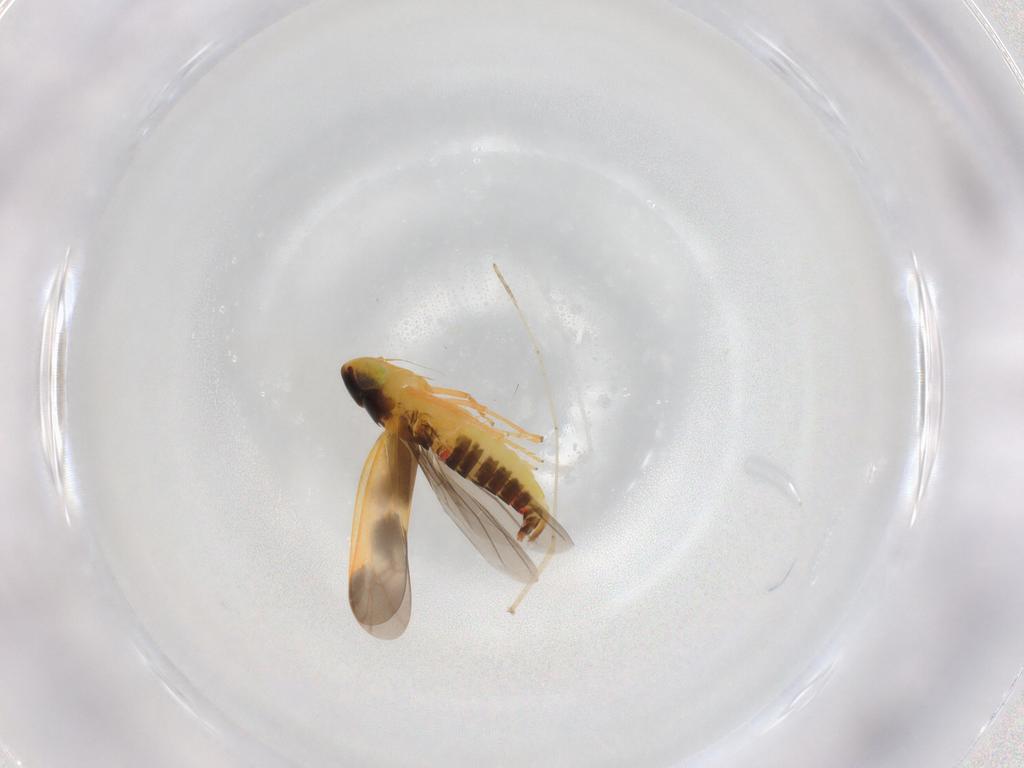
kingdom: Animalia
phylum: Arthropoda
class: Insecta
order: Hemiptera
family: Cicadellidae
